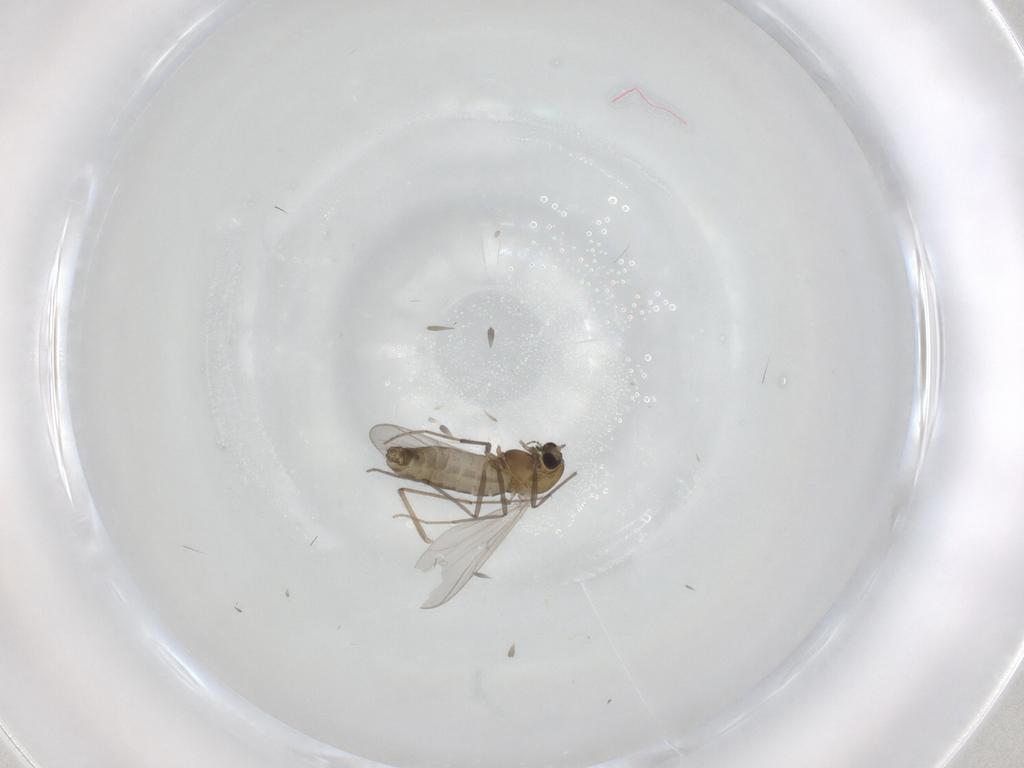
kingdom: Animalia
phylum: Arthropoda
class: Insecta
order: Diptera
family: Chironomidae
